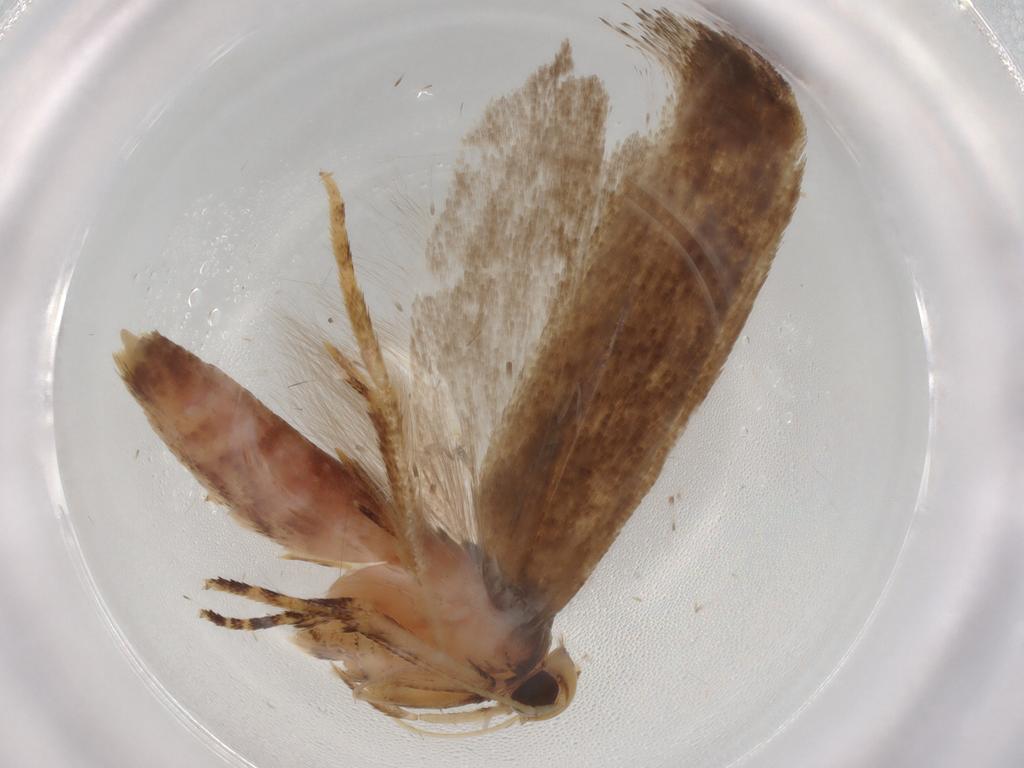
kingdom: Animalia
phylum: Arthropoda
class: Insecta
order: Lepidoptera
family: Gelechiidae
